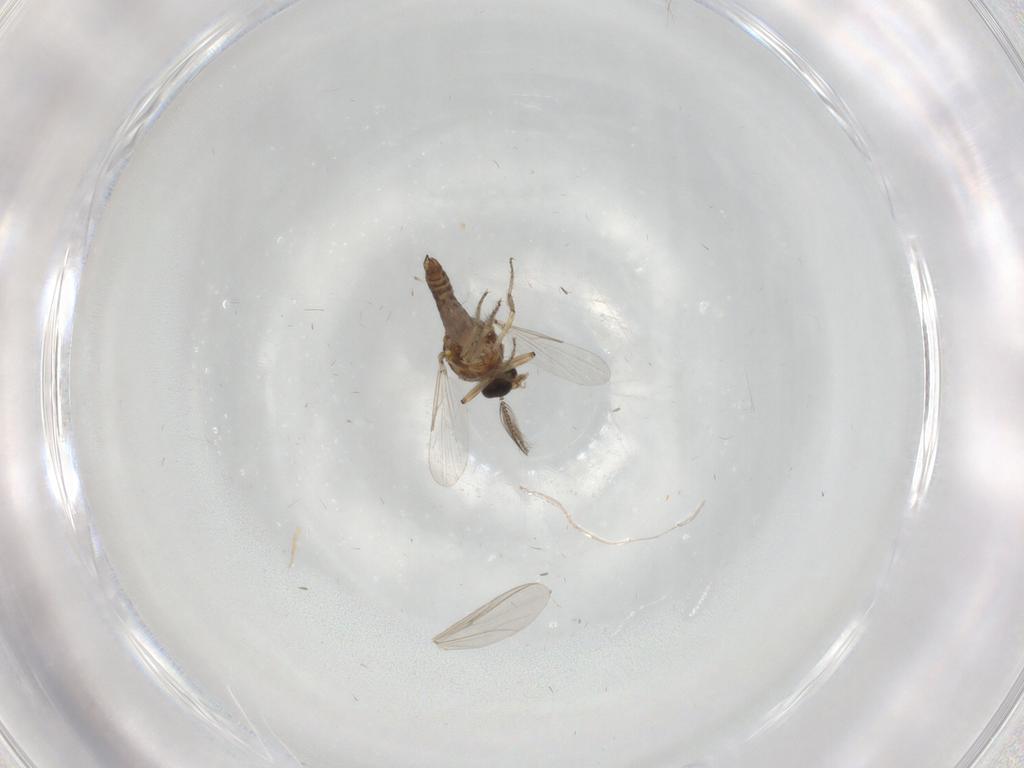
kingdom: Animalia
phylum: Arthropoda
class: Insecta
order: Diptera
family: Ceratopogonidae
